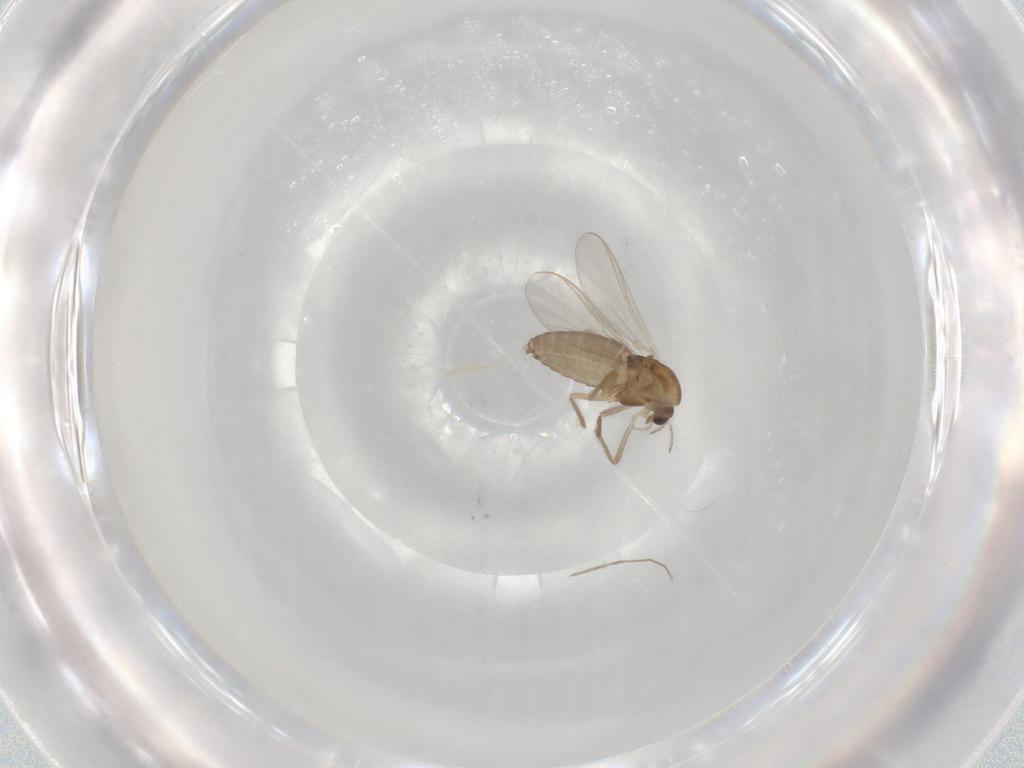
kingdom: Animalia
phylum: Arthropoda
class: Insecta
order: Diptera
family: Chironomidae
